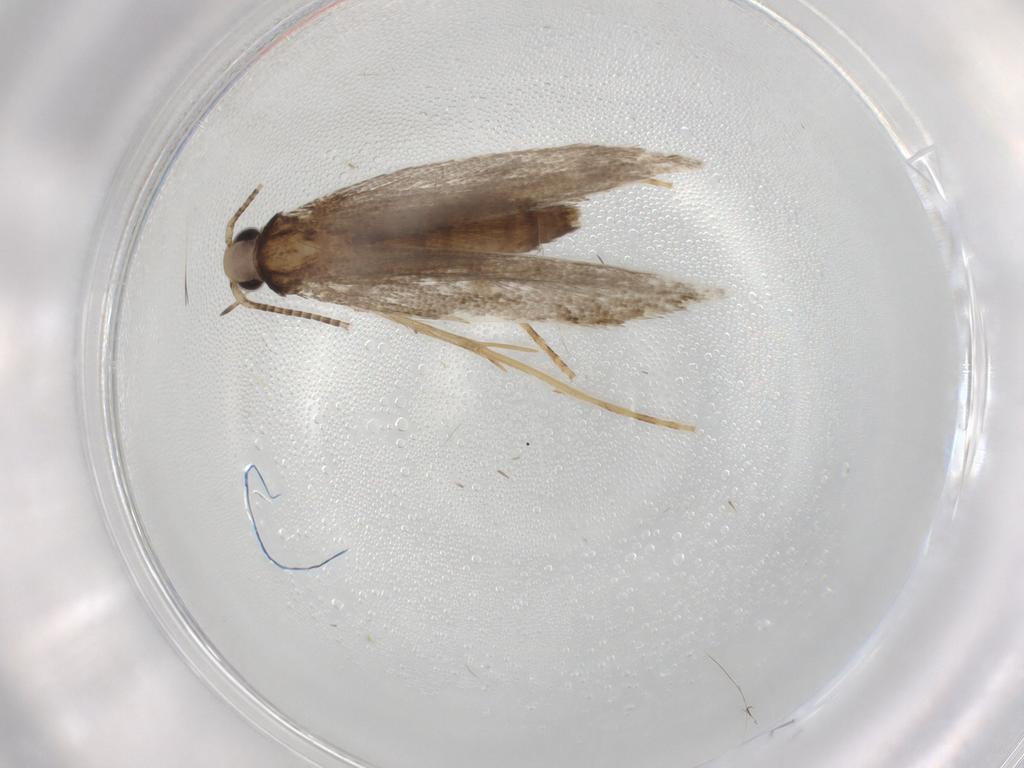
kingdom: Animalia
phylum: Arthropoda
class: Insecta
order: Lepidoptera
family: Gracillariidae
